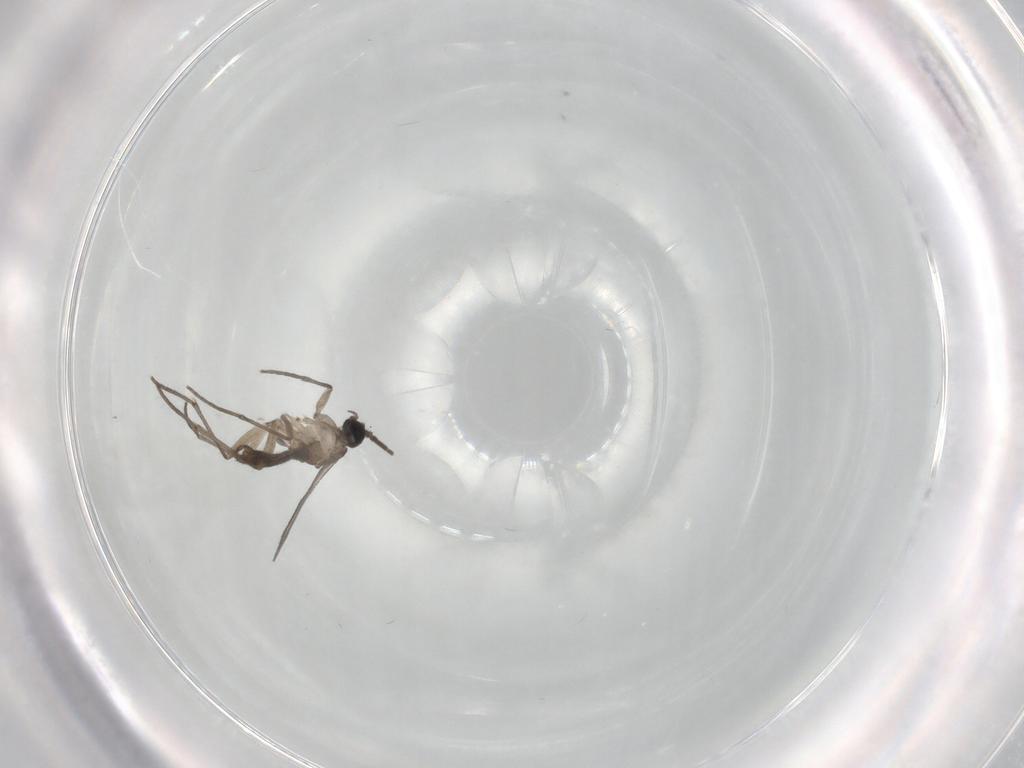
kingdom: Animalia
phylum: Arthropoda
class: Insecta
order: Diptera
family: Sciaridae
